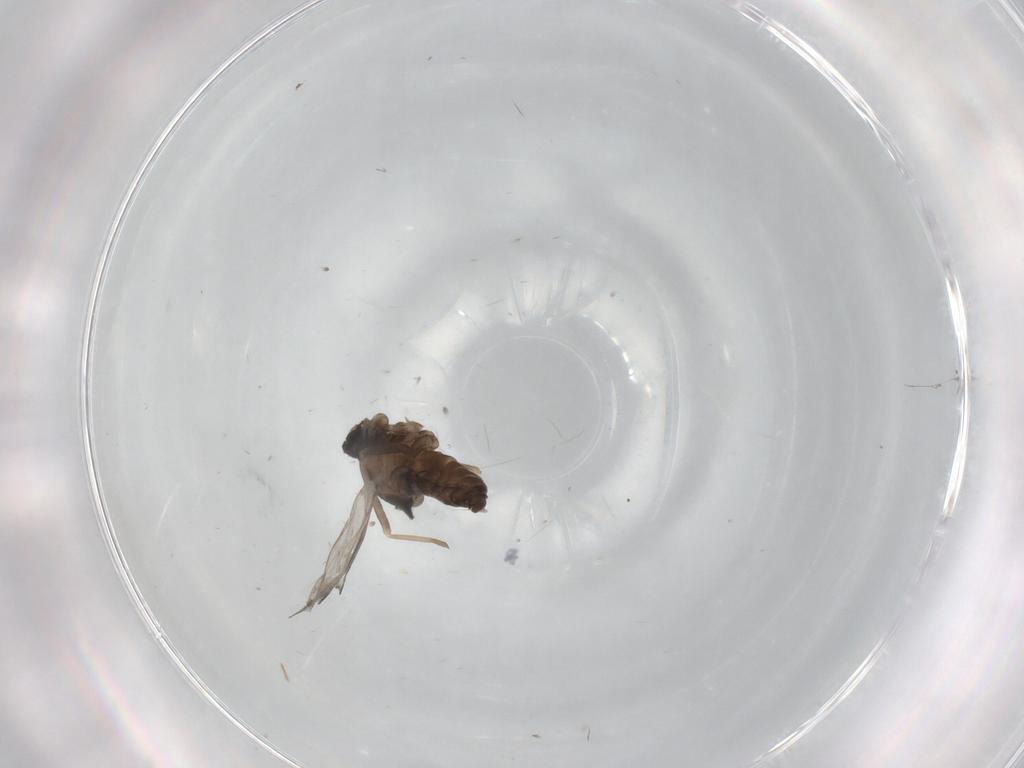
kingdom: Animalia
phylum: Arthropoda
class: Insecta
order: Diptera
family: Cecidomyiidae
